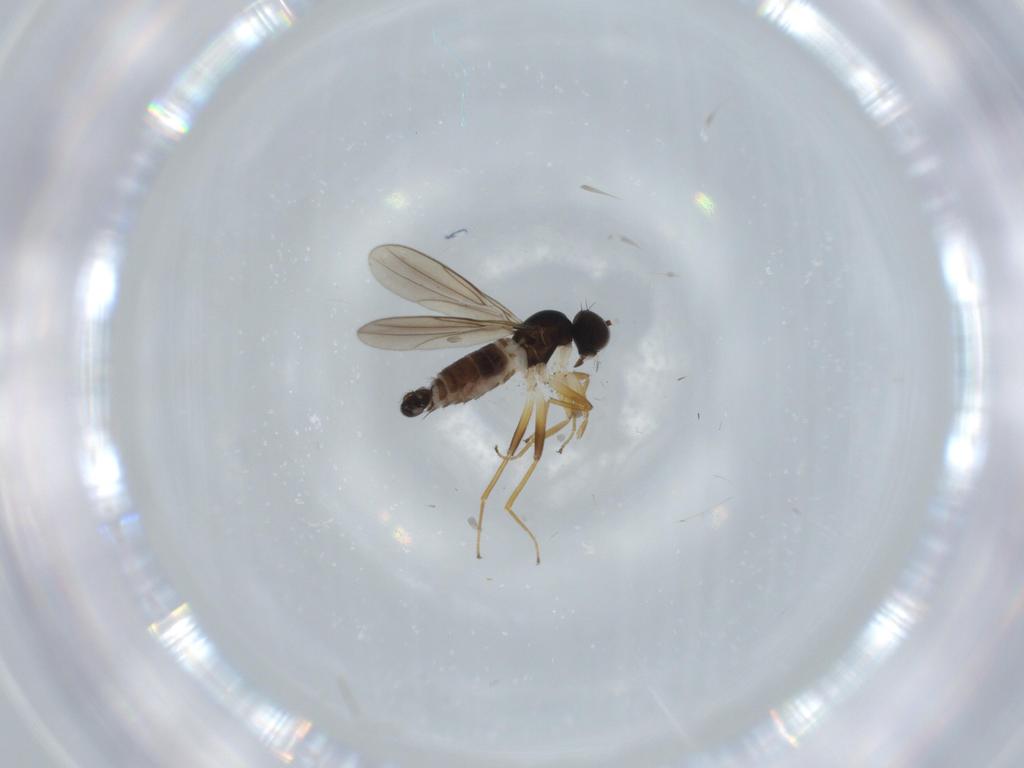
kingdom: Animalia
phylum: Arthropoda
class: Insecta
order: Diptera
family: Hybotidae
